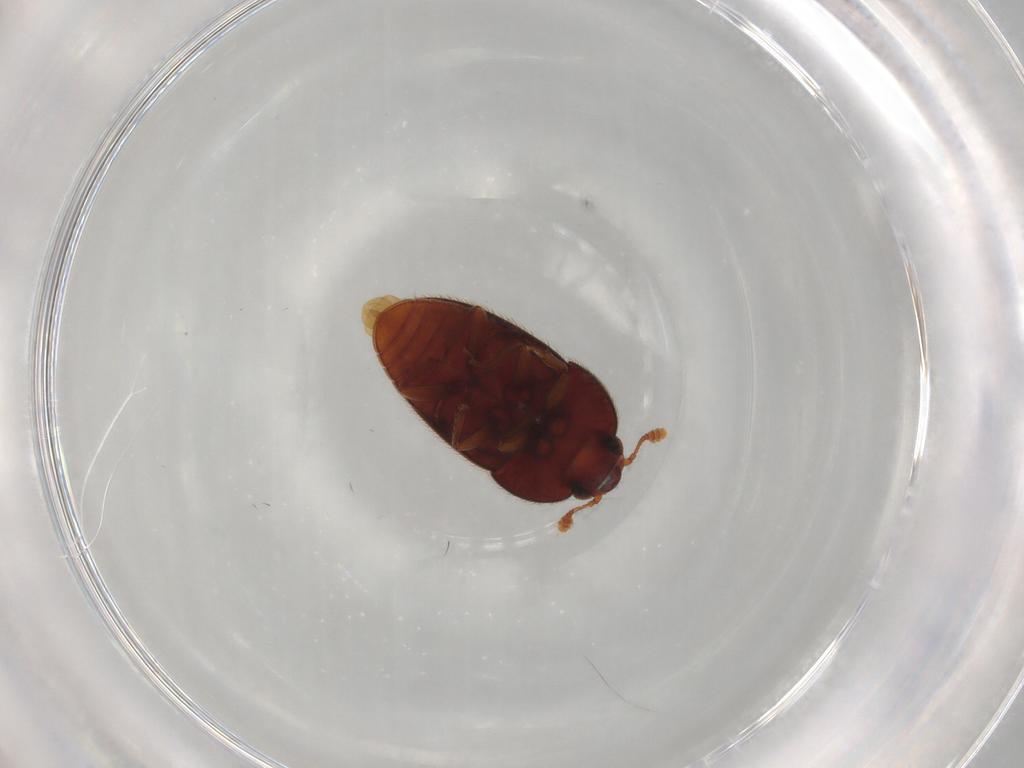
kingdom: Animalia
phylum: Arthropoda
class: Insecta
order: Coleoptera
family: Biphyllidae
